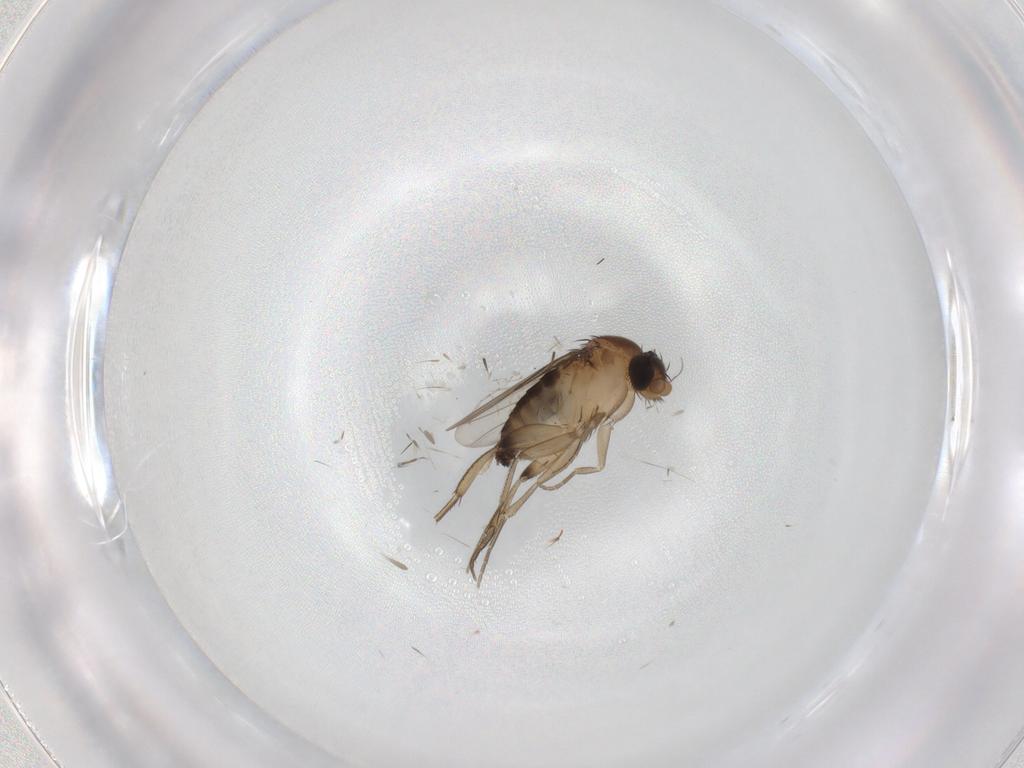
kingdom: Animalia
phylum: Arthropoda
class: Insecta
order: Diptera
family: Phoridae
